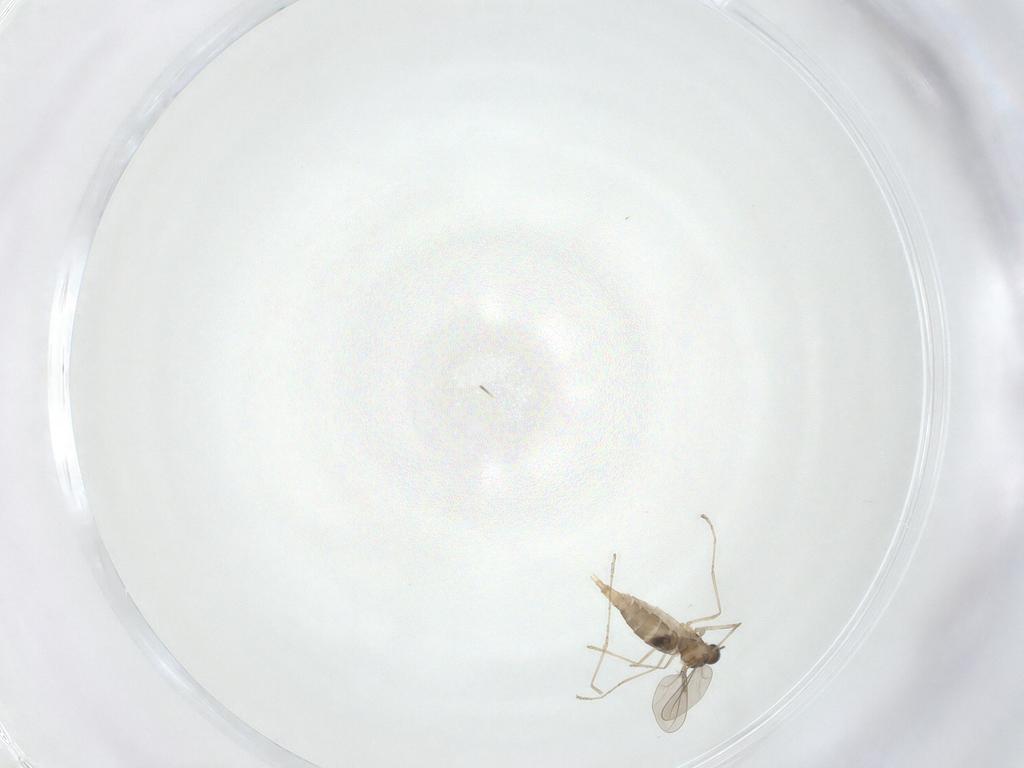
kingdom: Animalia
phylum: Arthropoda
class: Insecta
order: Diptera
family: Cecidomyiidae
